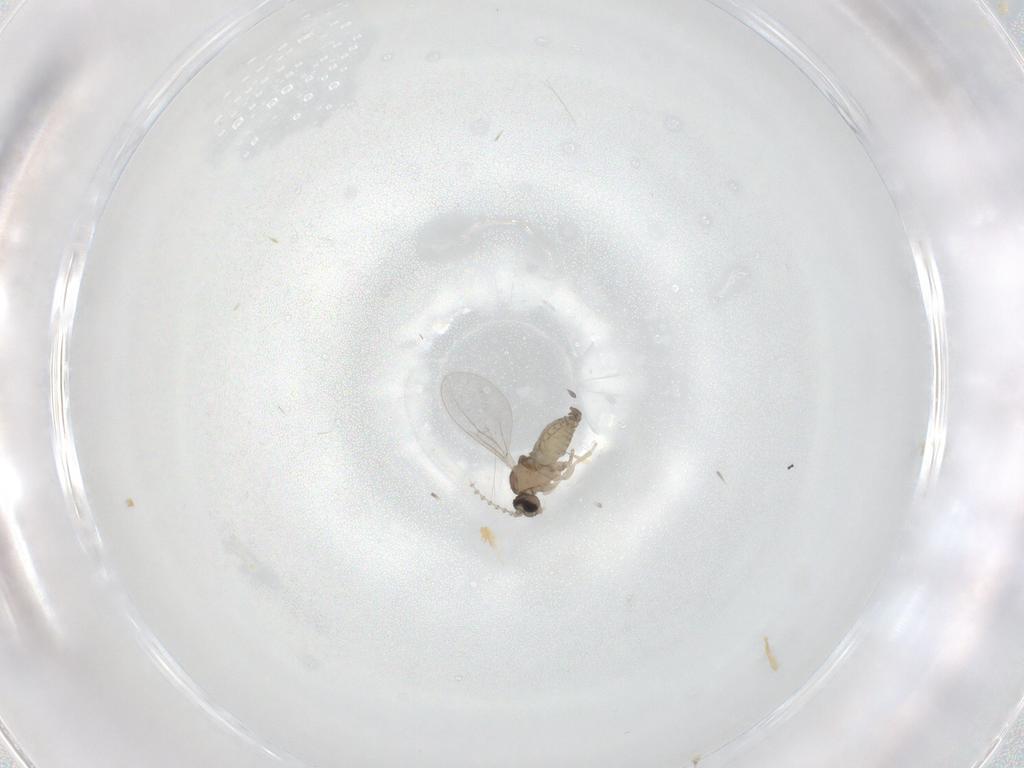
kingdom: Animalia
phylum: Arthropoda
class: Insecta
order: Diptera
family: Cecidomyiidae
